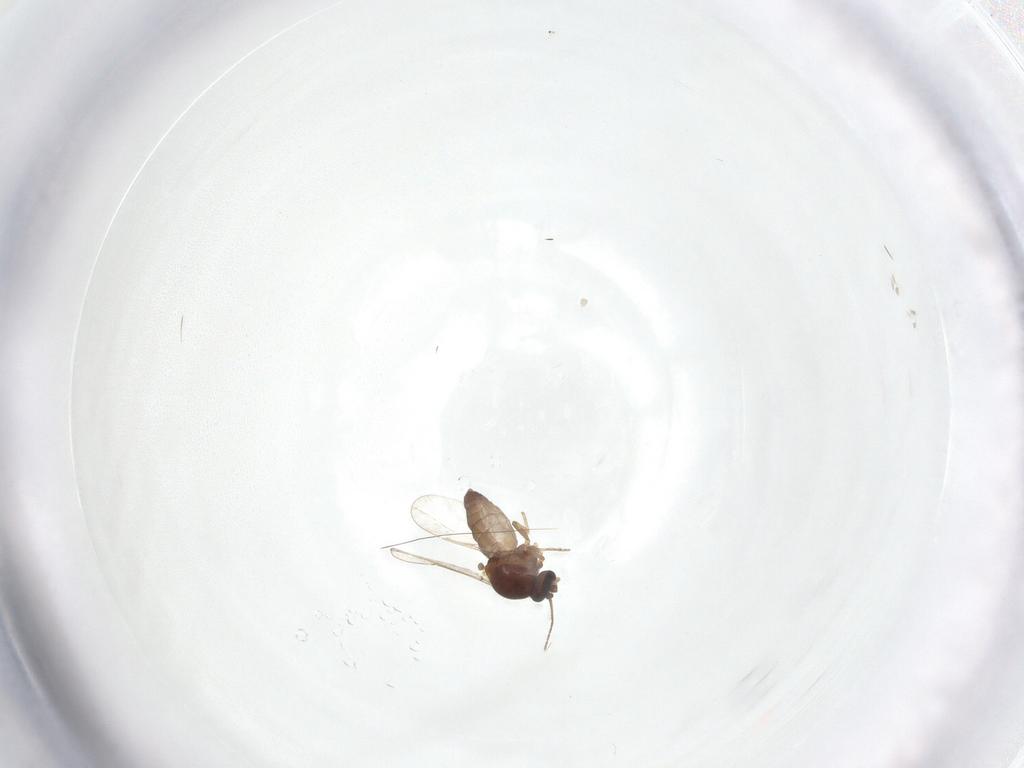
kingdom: Animalia
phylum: Arthropoda
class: Insecta
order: Diptera
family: Ceratopogonidae
